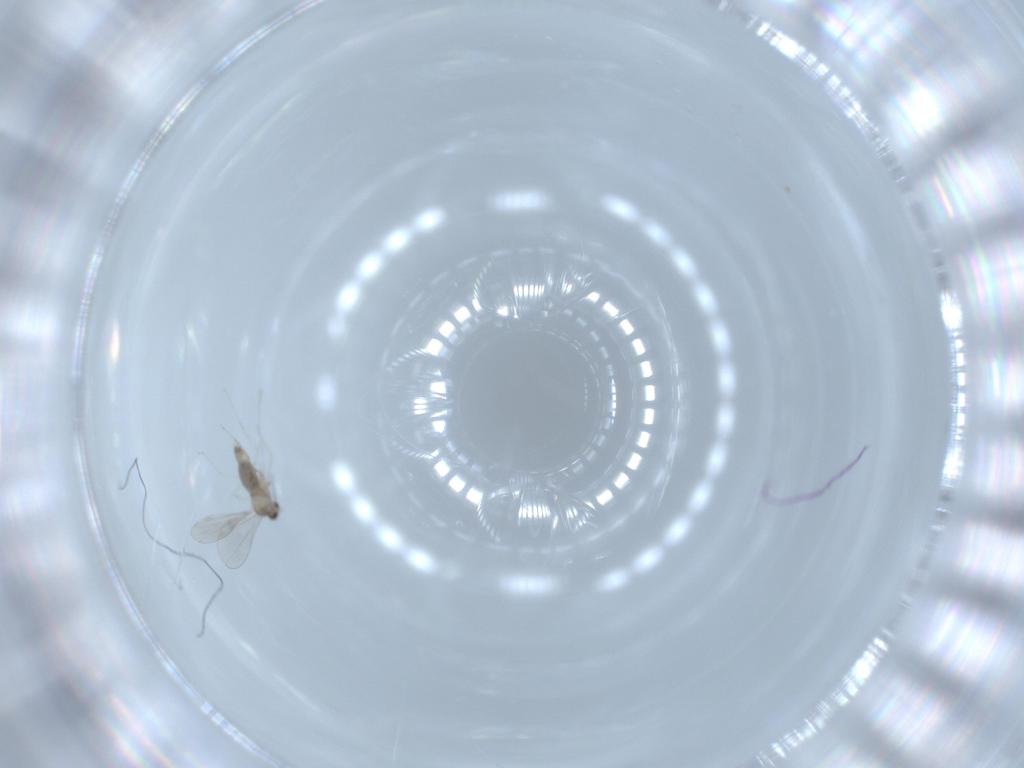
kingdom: Animalia
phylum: Arthropoda
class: Insecta
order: Diptera
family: Cecidomyiidae
